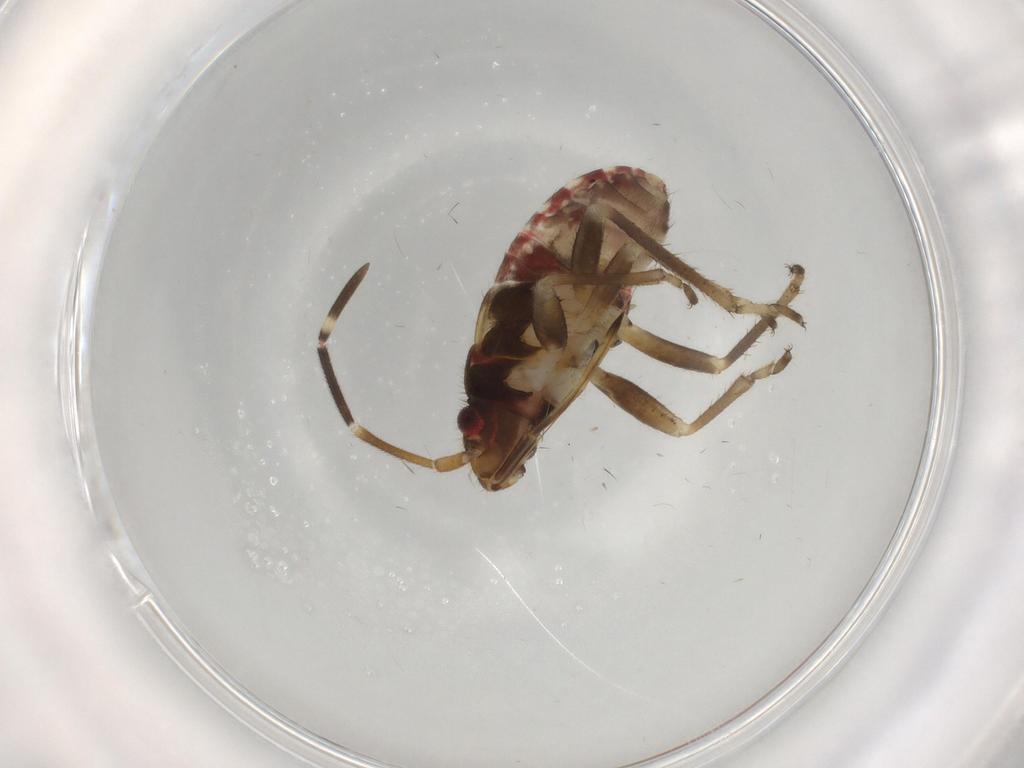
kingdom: Animalia
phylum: Arthropoda
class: Insecta
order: Hemiptera
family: Rhyparochromidae
